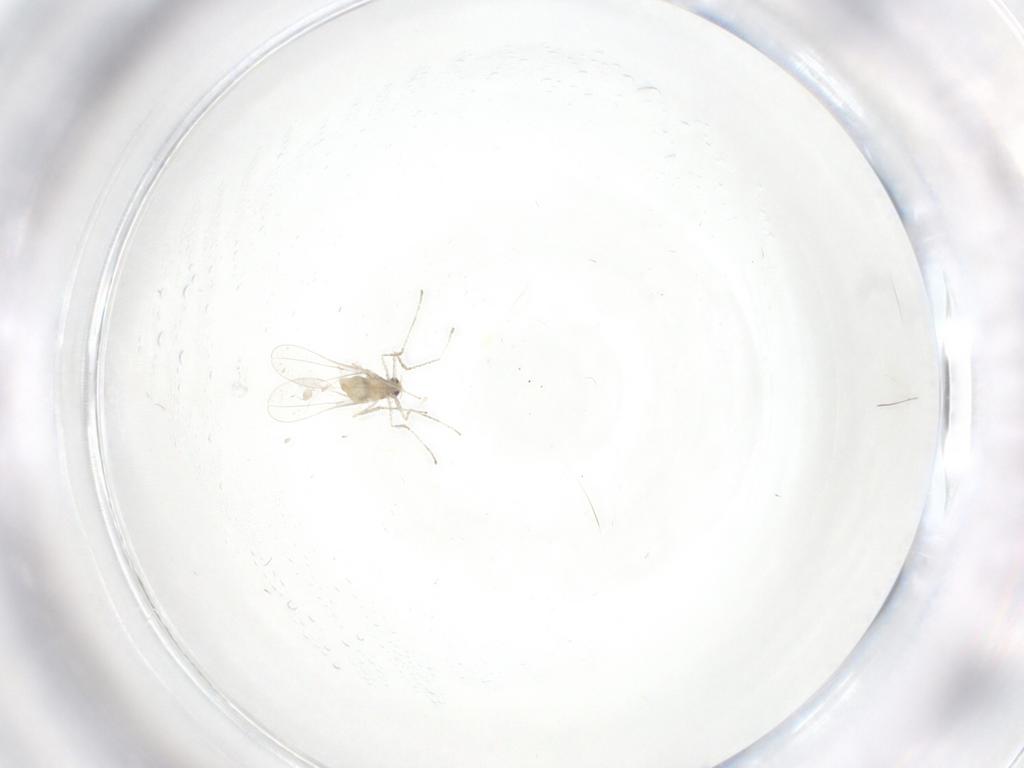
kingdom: Animalia
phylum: Arthropoda
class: Insecta
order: Diptera
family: Cecidomyiidae
